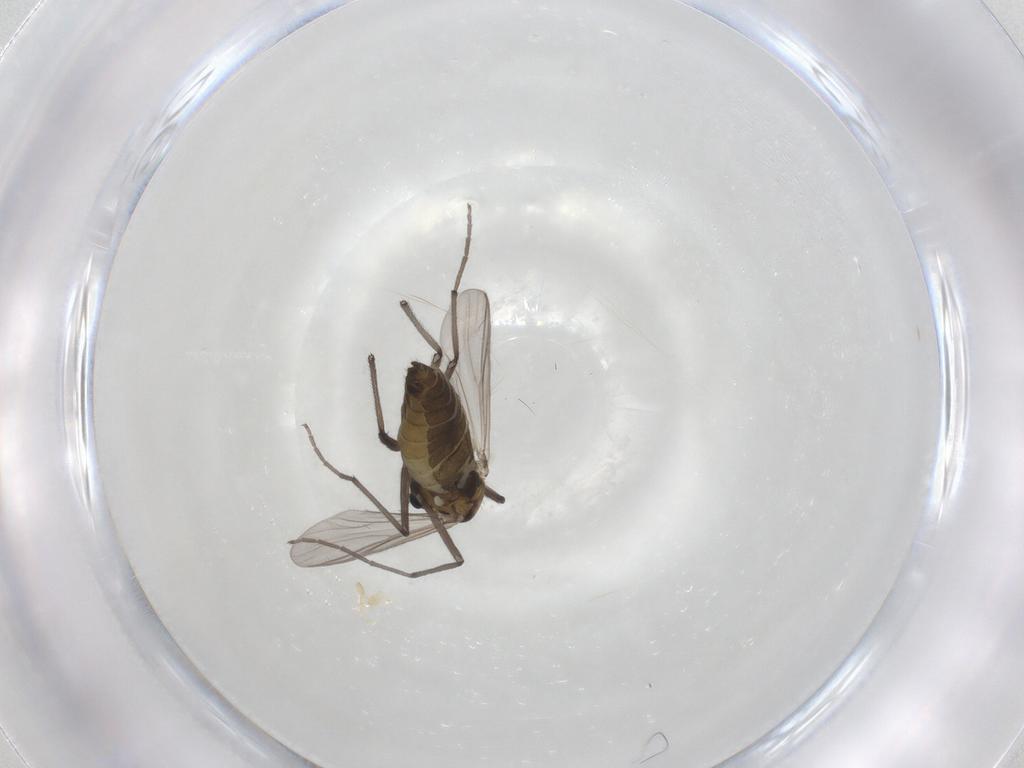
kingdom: Animalia
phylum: Arthropoda
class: Insecta
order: Diptera
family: Chironomidae
